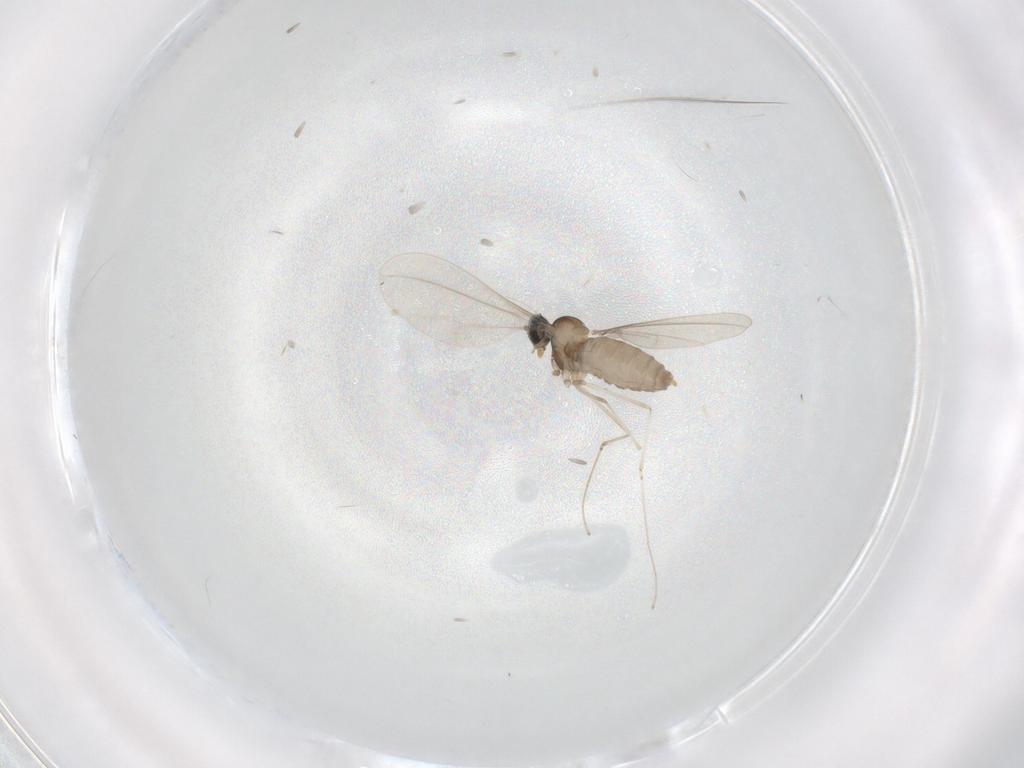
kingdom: Animalia
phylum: Arthropoda
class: Insecta
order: Diptera
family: Cecidomyiidae
